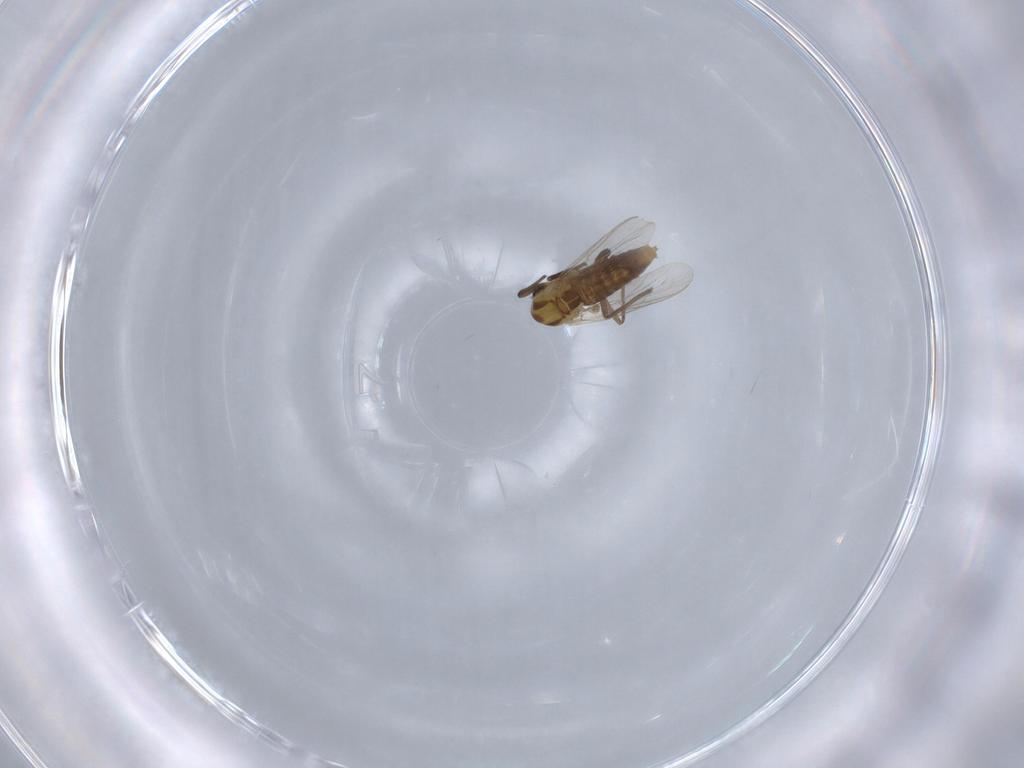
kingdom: Animalia
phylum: Arthropoda
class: Insecta
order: Diptera
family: Chironomidae
